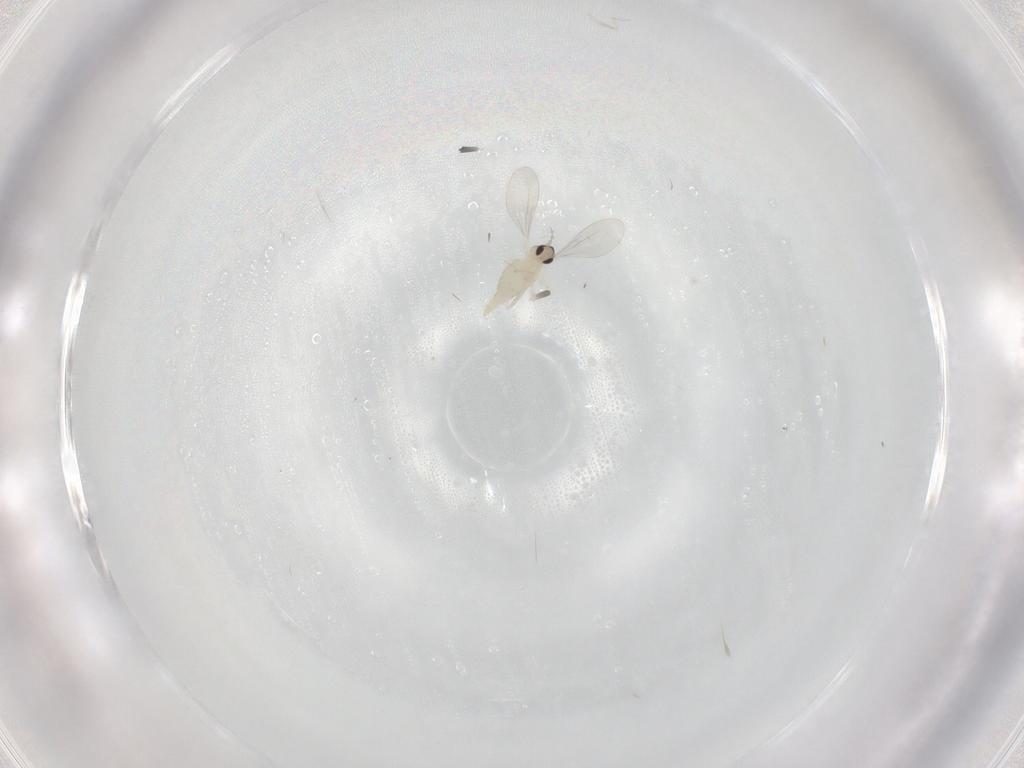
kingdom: Animalia
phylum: Arthropoda
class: Insecta
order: Diptera
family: Cecidomyiidae
